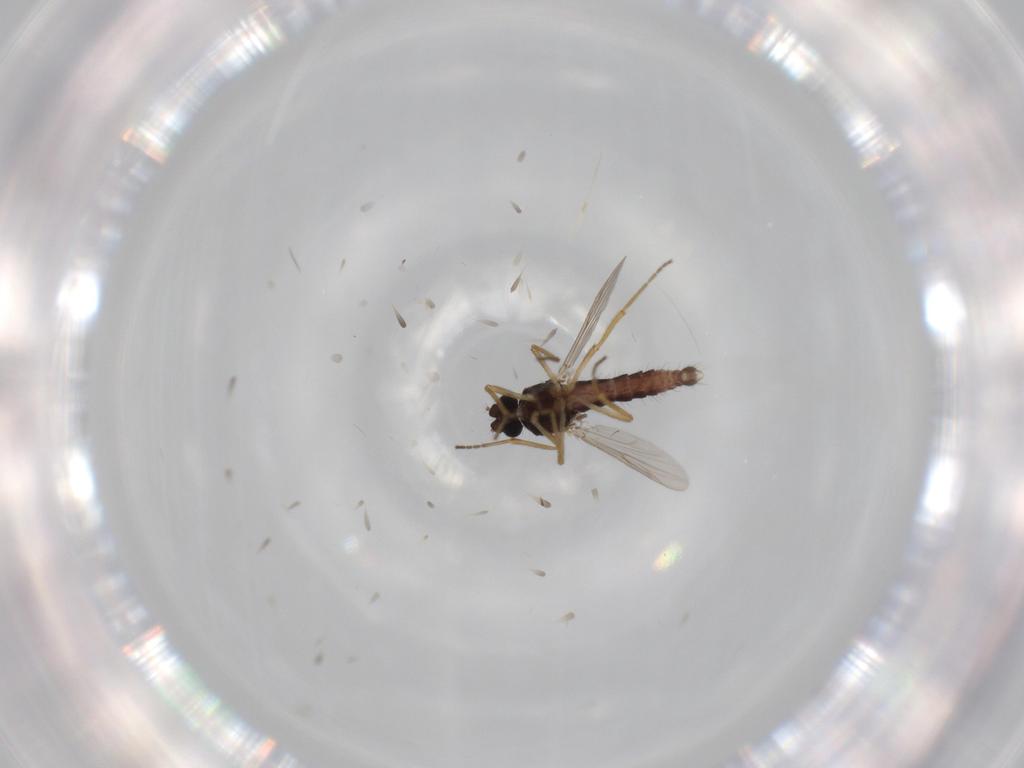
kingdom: Animalia
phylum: Arthropoda
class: Insecta
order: Diptera
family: Ceratopogonidae
